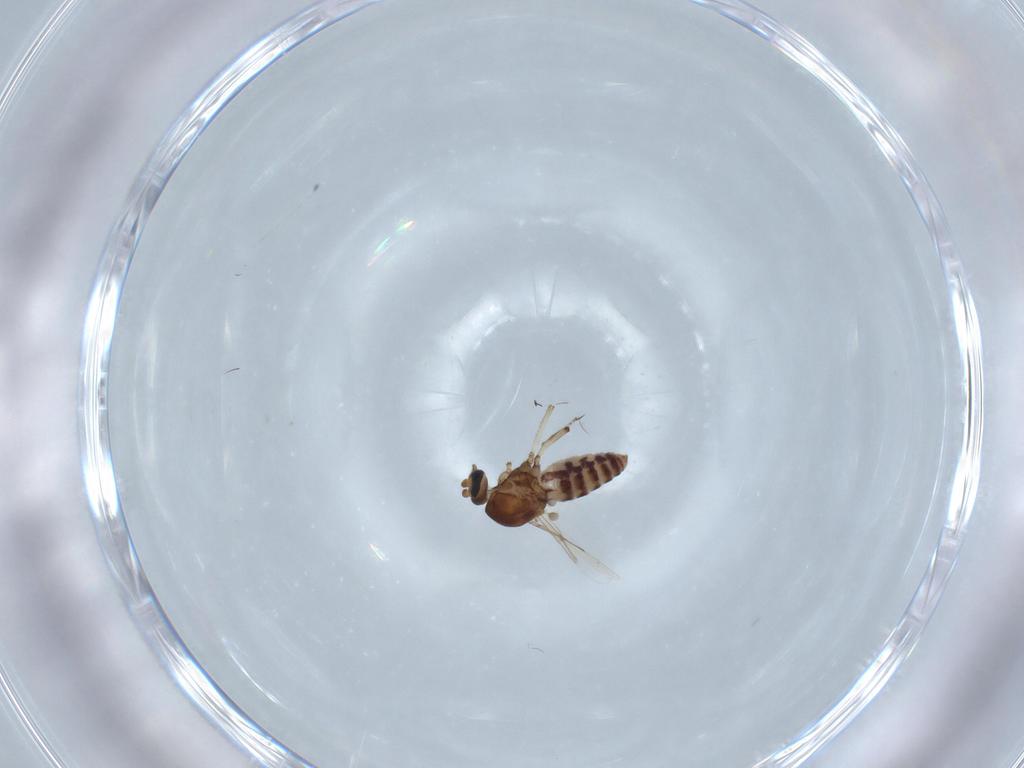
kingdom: Animalia
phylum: Arthropoda
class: Insecta
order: Diptera
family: Ceratopogonidae
